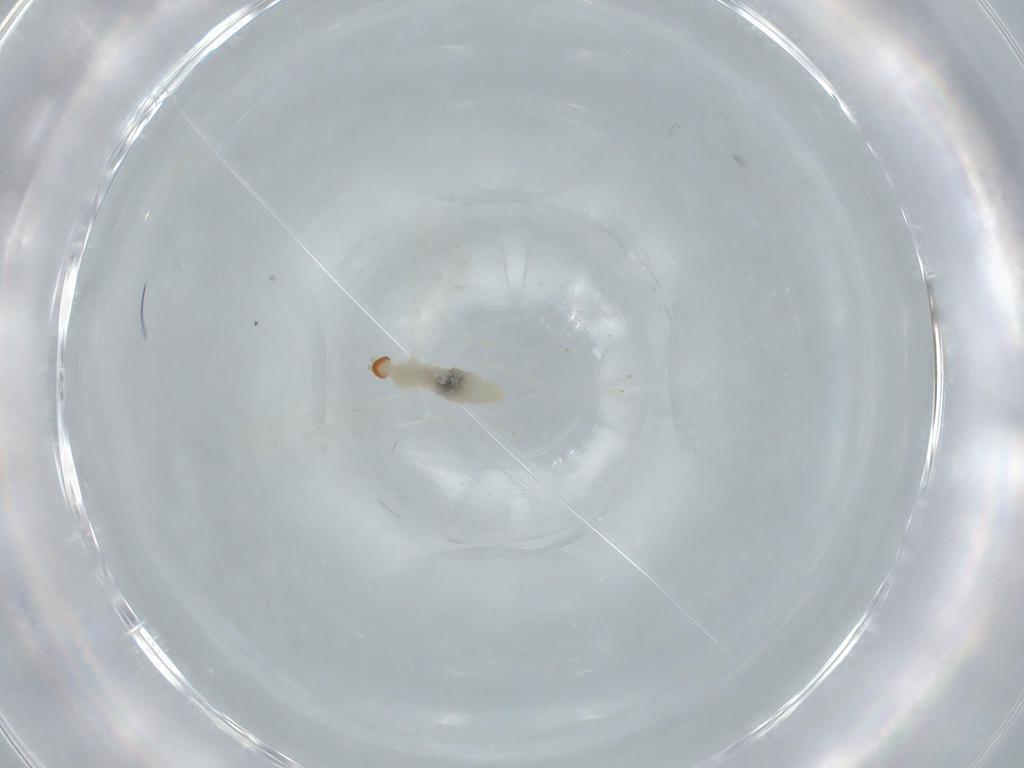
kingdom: Animalia
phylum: Arthropoda
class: Insecta
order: Diptera
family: Cecidomyiidae
